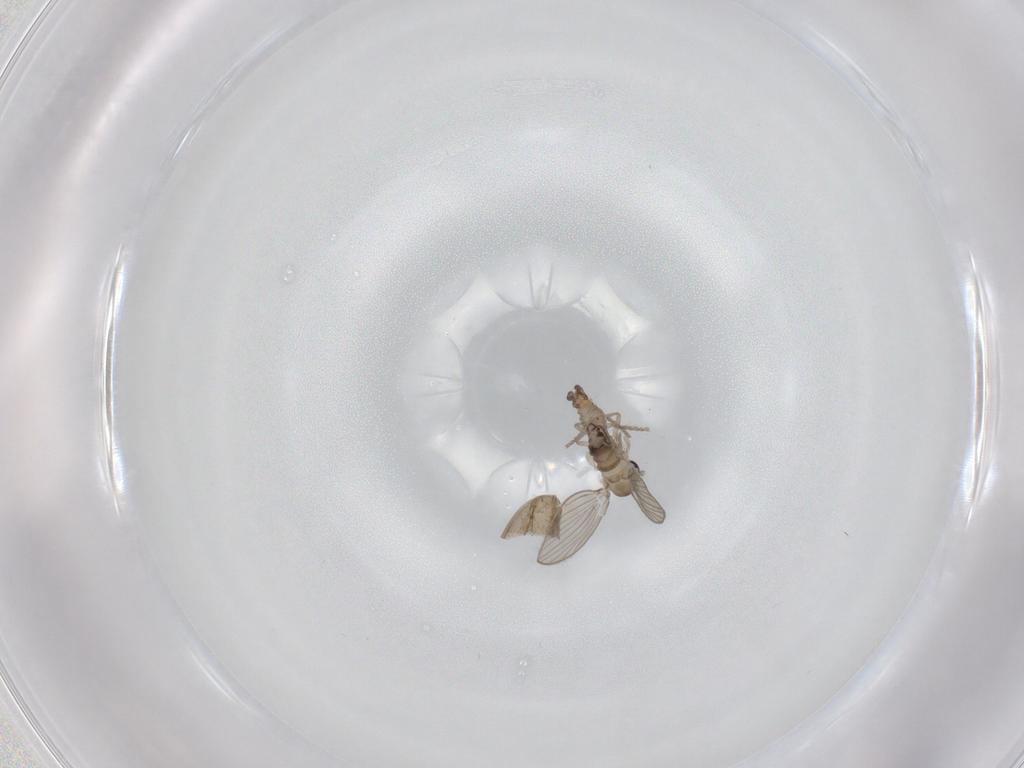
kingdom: Animalia
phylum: Arthropoda
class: Insecta
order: Diptera
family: Psychodidae
